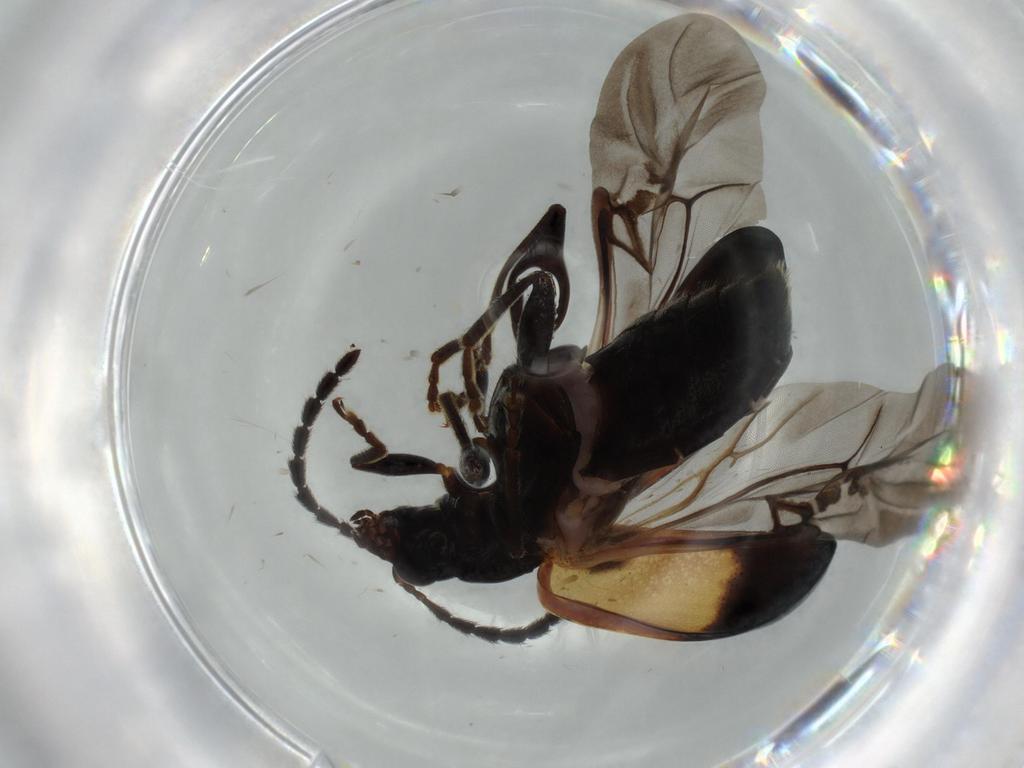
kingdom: Animalia
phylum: Arthropoda
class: Insecta
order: Coleoptera
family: Chrysomelidae
